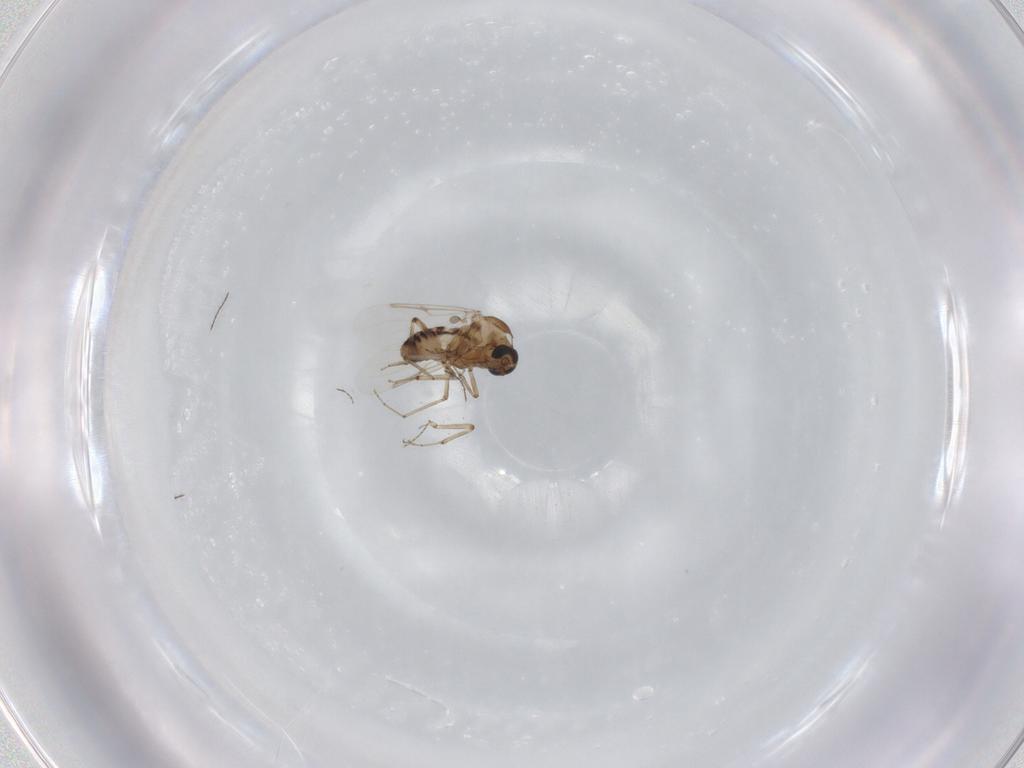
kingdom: Animalia
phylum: Arthropoda
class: Insecta
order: Diptera
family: Ceratopogonidae
